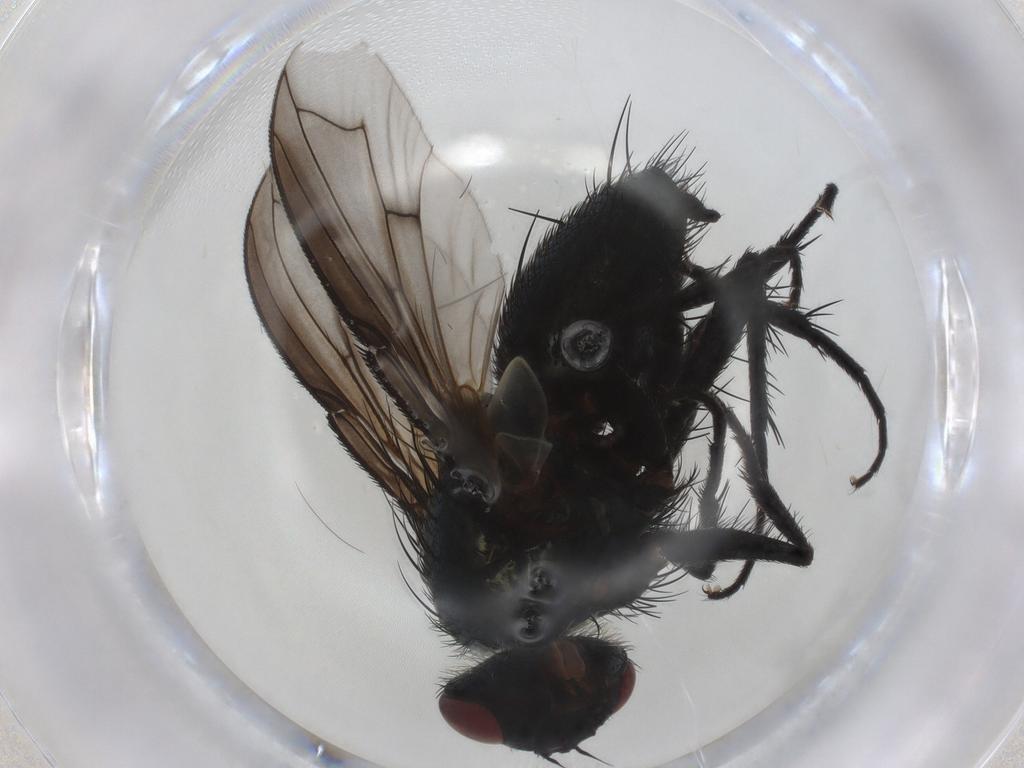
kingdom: Animalia
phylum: Arthropoda
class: Insecta
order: Diptera
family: Tachinidae
